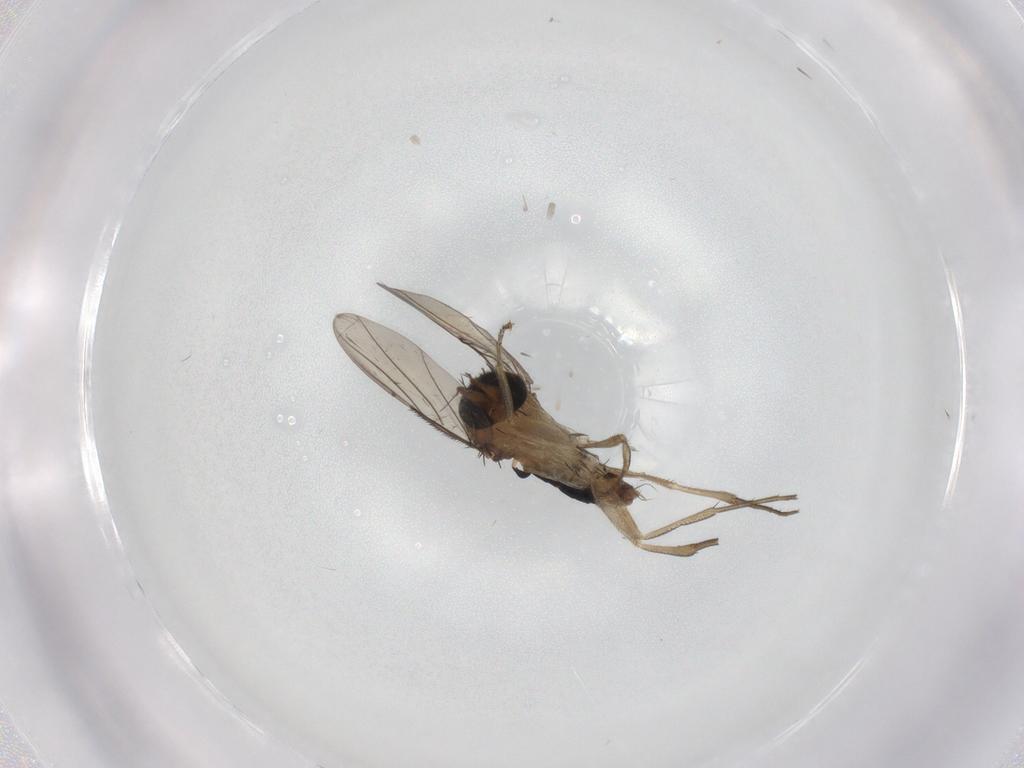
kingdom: Animalia
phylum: Arthropoda
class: Insecta
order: Diptera
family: Phoridae
